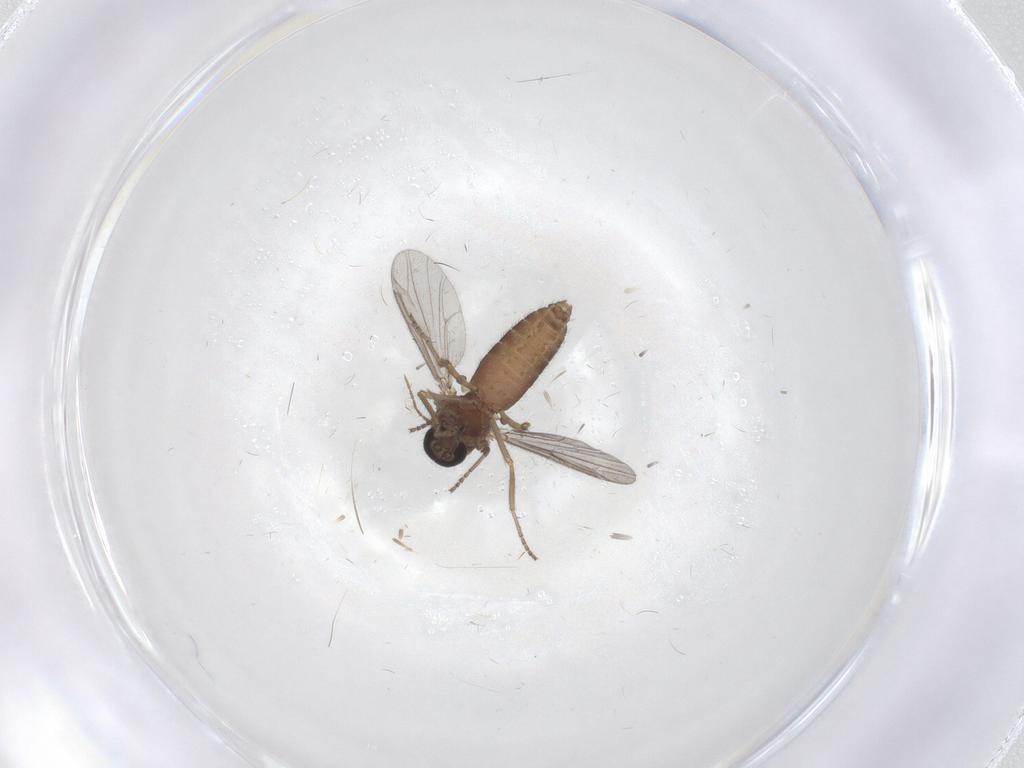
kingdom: Animalia
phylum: Arthropoda
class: Insecta
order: Diptera
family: Ceratopogonidae
